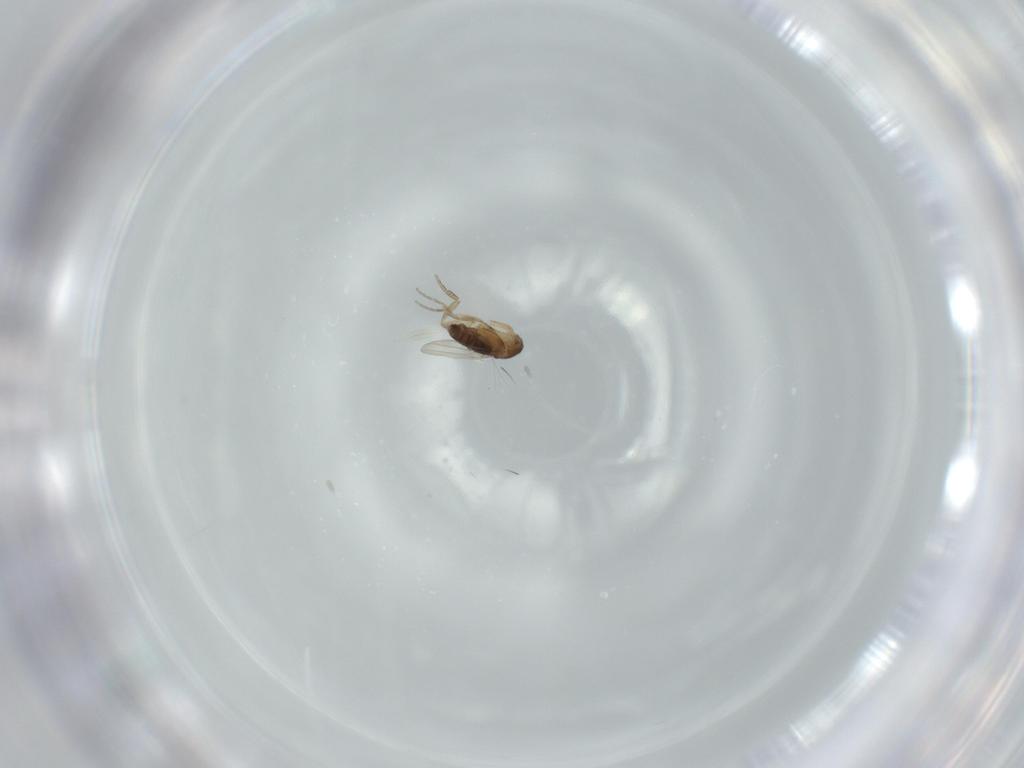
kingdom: Animalia
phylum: Arthropoda
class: Insecta
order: Diptera
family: Phoridae
